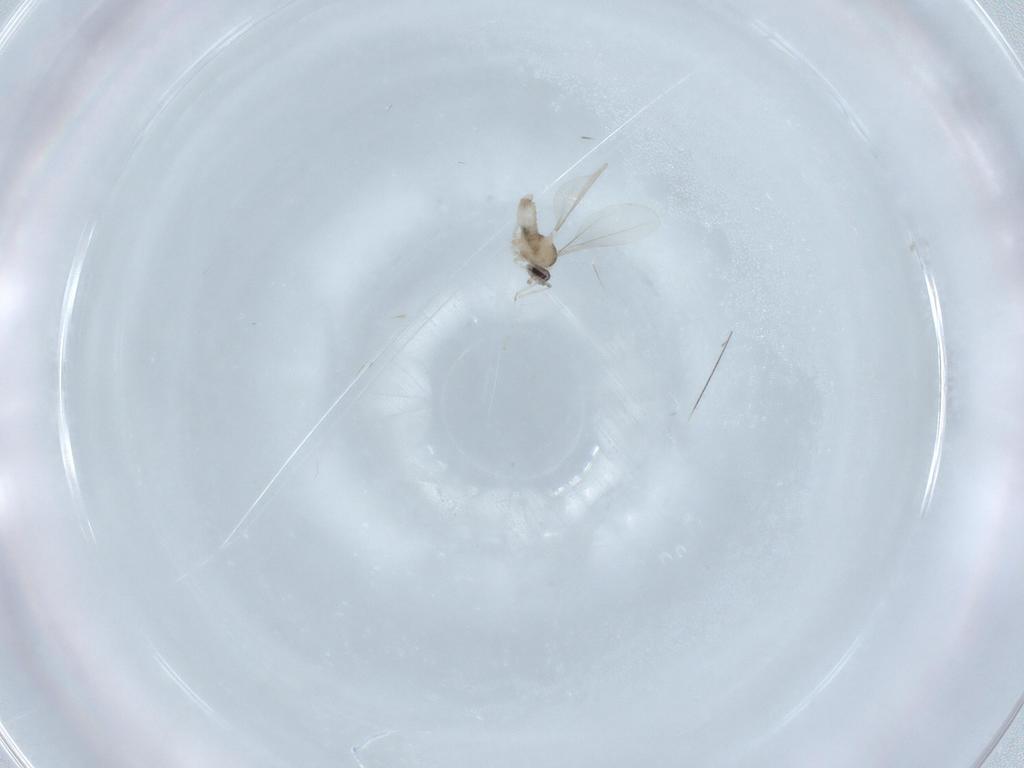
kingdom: Animalia
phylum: Arthropoda
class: Insecta
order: Diptera
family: Cecidomyiidae
